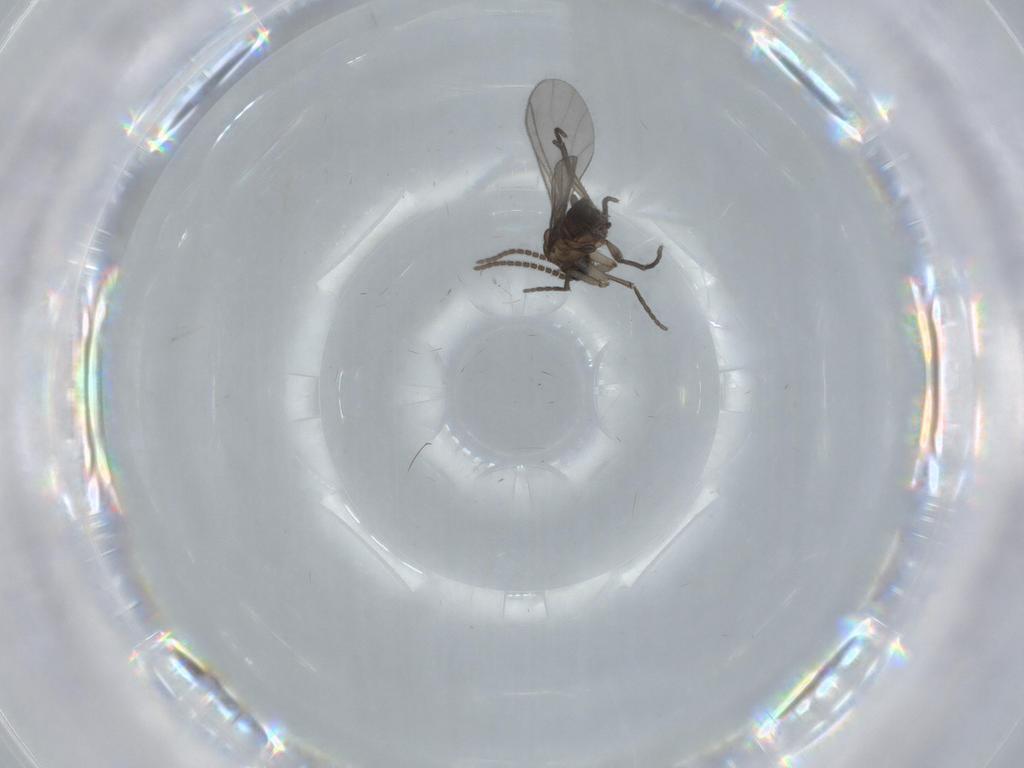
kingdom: Animalia
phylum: Arthropoda
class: Insecta
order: Diptera
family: Sciaridae
